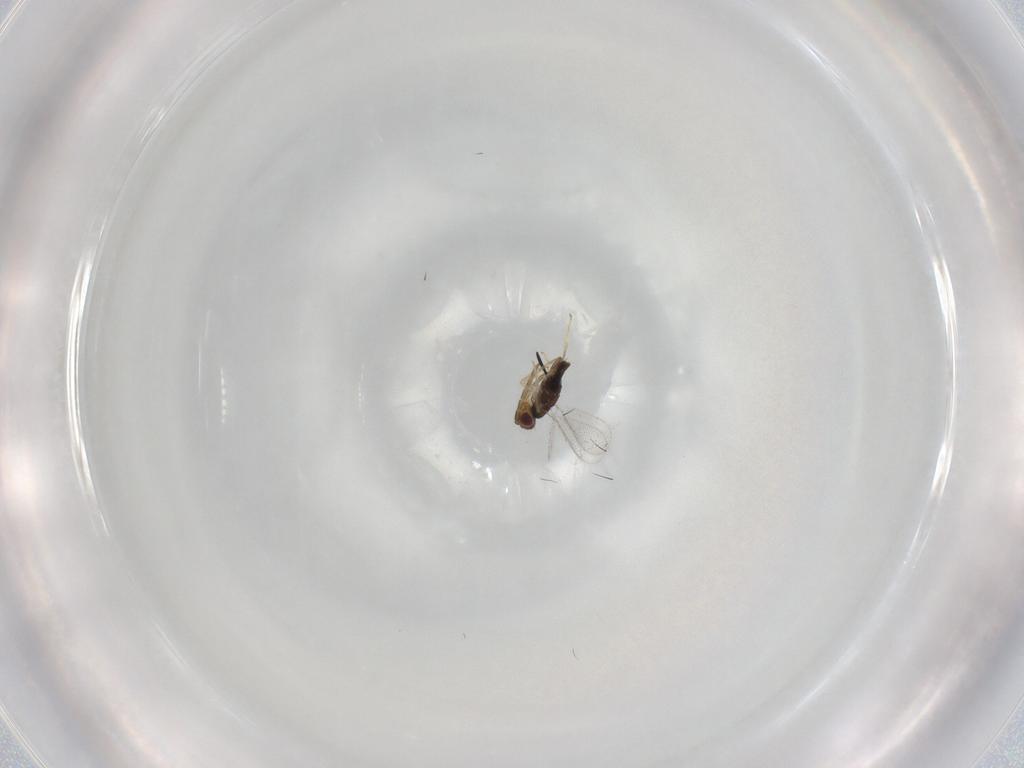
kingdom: Animalia
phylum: Arthropoda
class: Insecta
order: Hymenoptera
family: Aphelinidae
